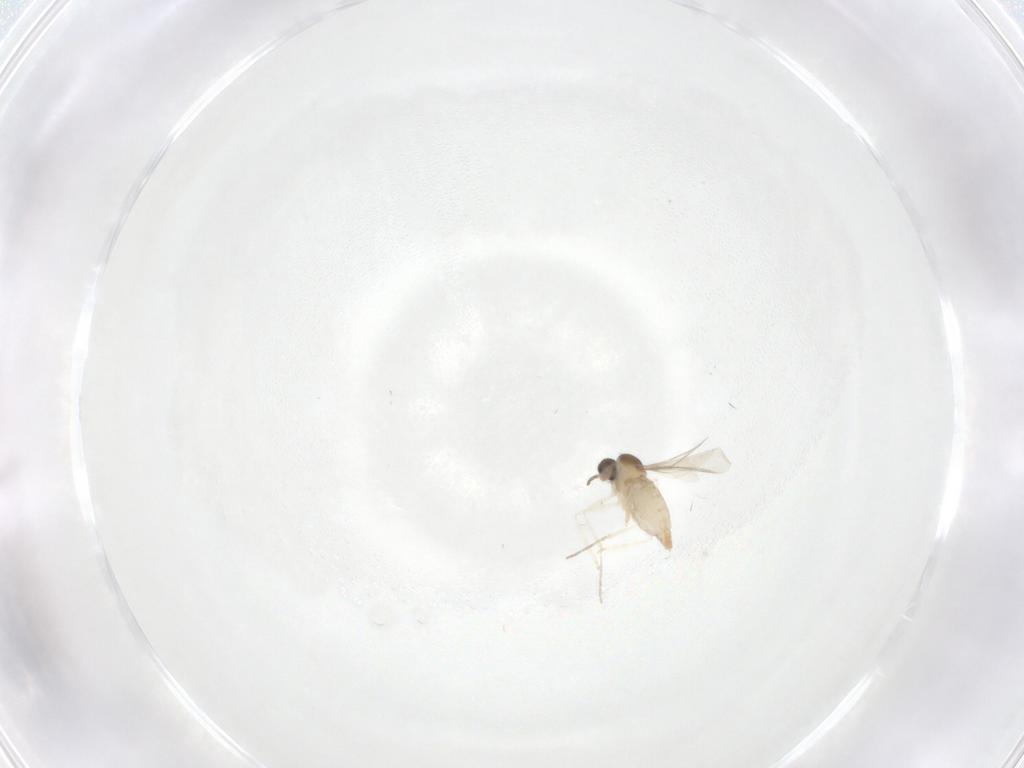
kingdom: Animalia
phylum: Arthropoda
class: Insecta
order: Diptera
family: Cecidomyiidae
